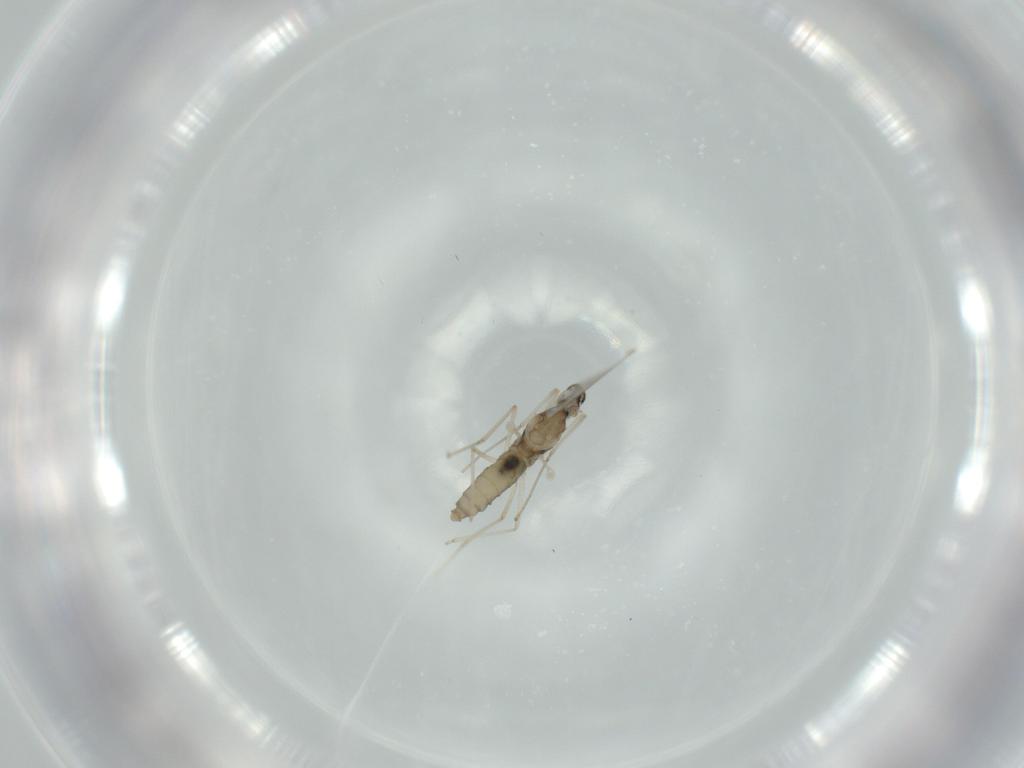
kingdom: Animalia
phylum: Arthropoda
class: Insecta
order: Diptera
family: Cecidomyiidae
